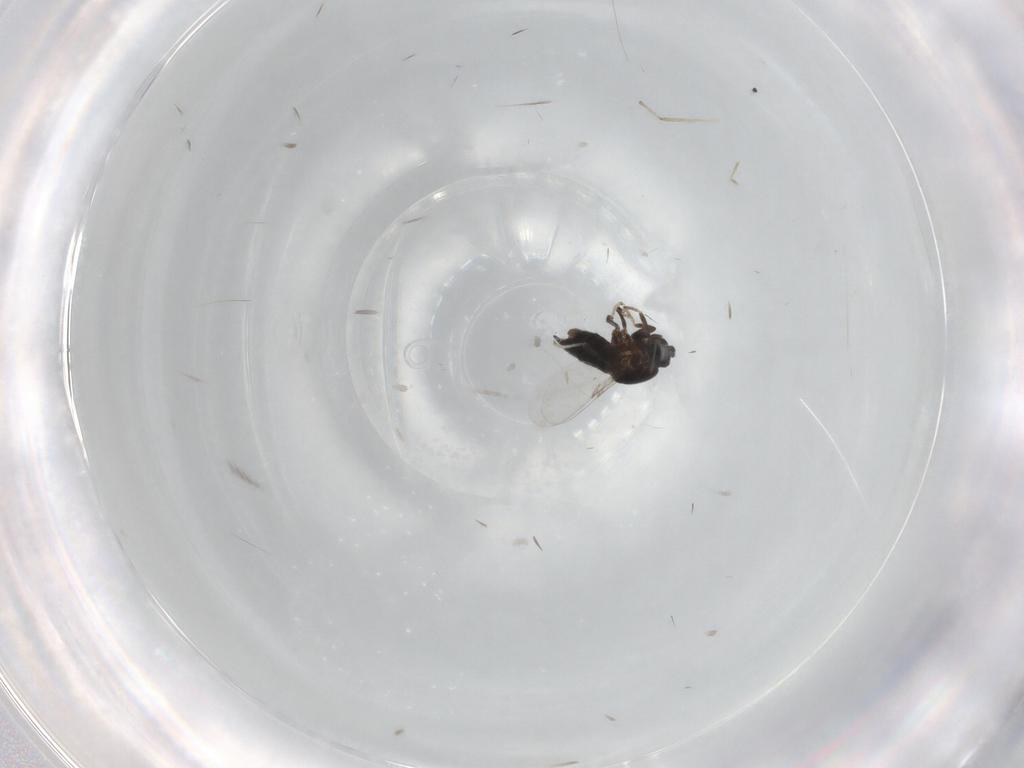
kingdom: Animalia
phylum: Arthropoda
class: Insecta
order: Diptera
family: Scatopsidae
